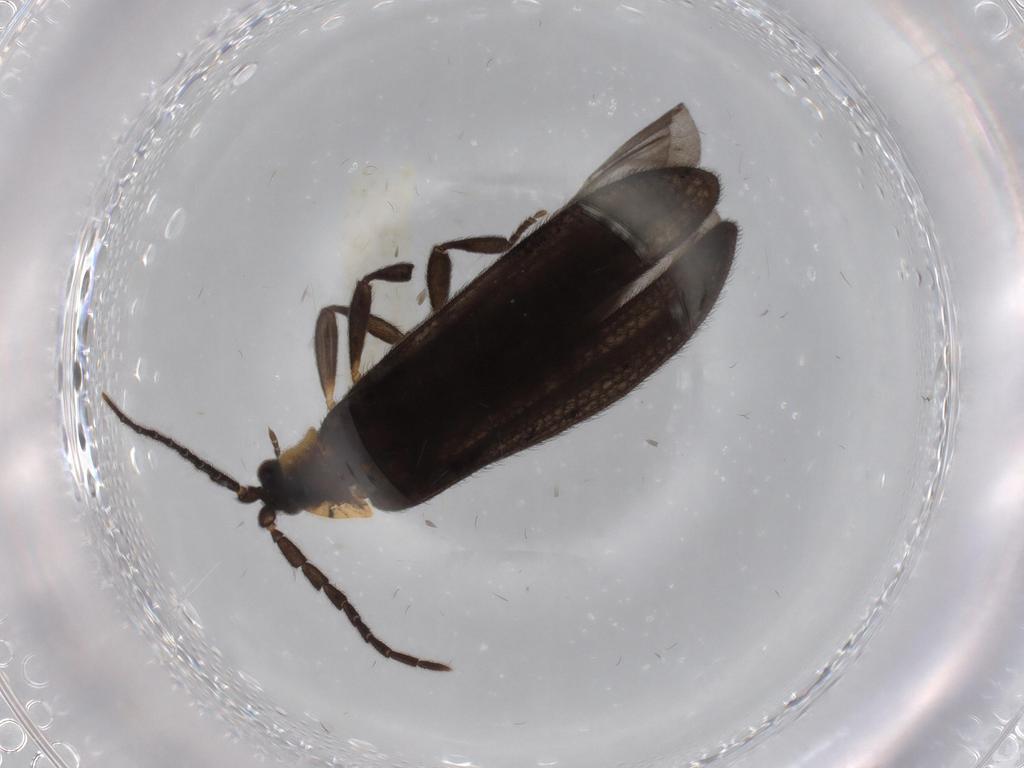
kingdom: Animalia
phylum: Arthropoda
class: Insecta
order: Coleoptera
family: Lycidae
